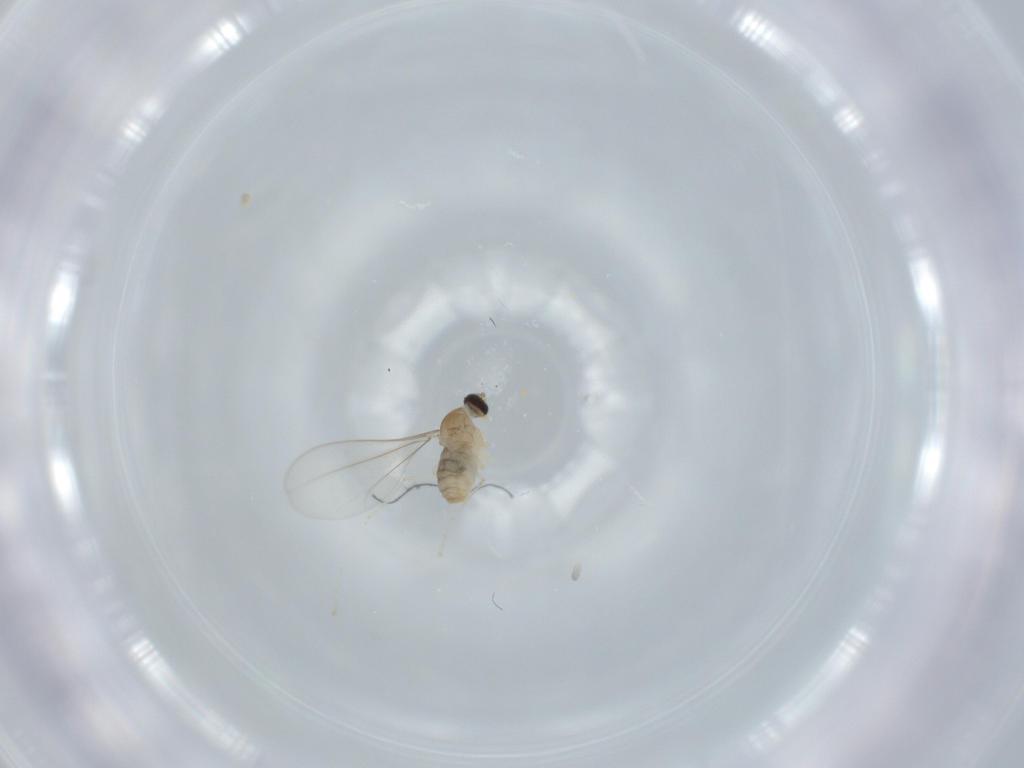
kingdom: Animalia
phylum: Arthropoda
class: Insecta
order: Diptera
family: Cecidomyiidae
